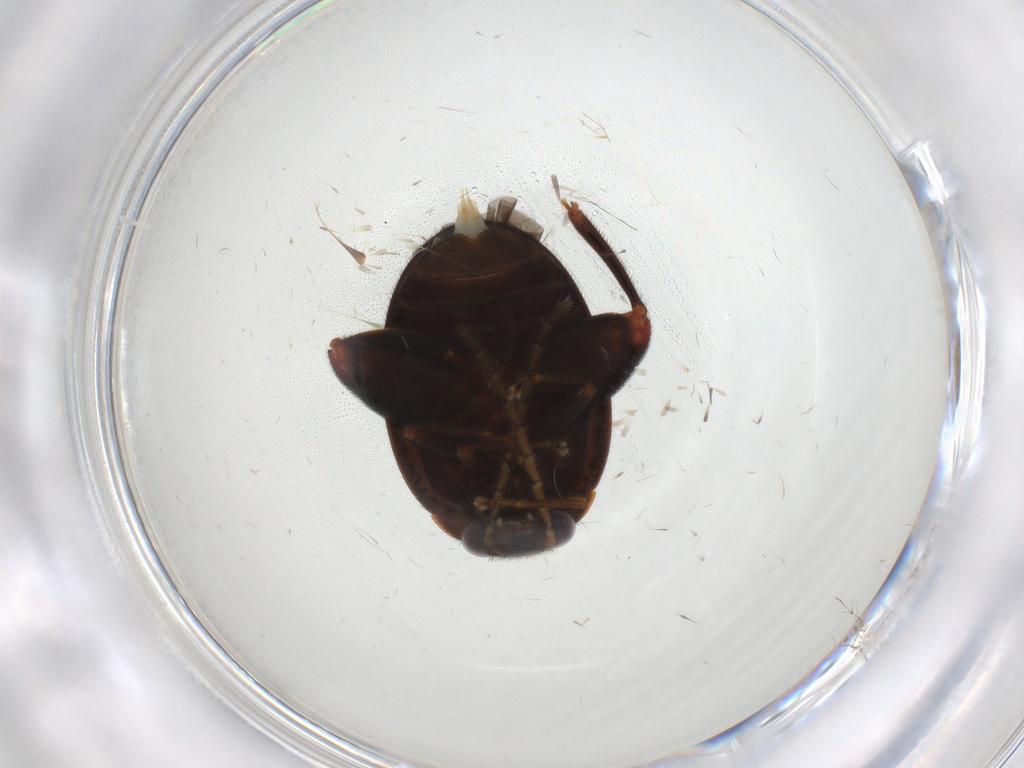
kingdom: Animalia
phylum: Arthropoda
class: Insecta
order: Coleoptera
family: Scirtidae
